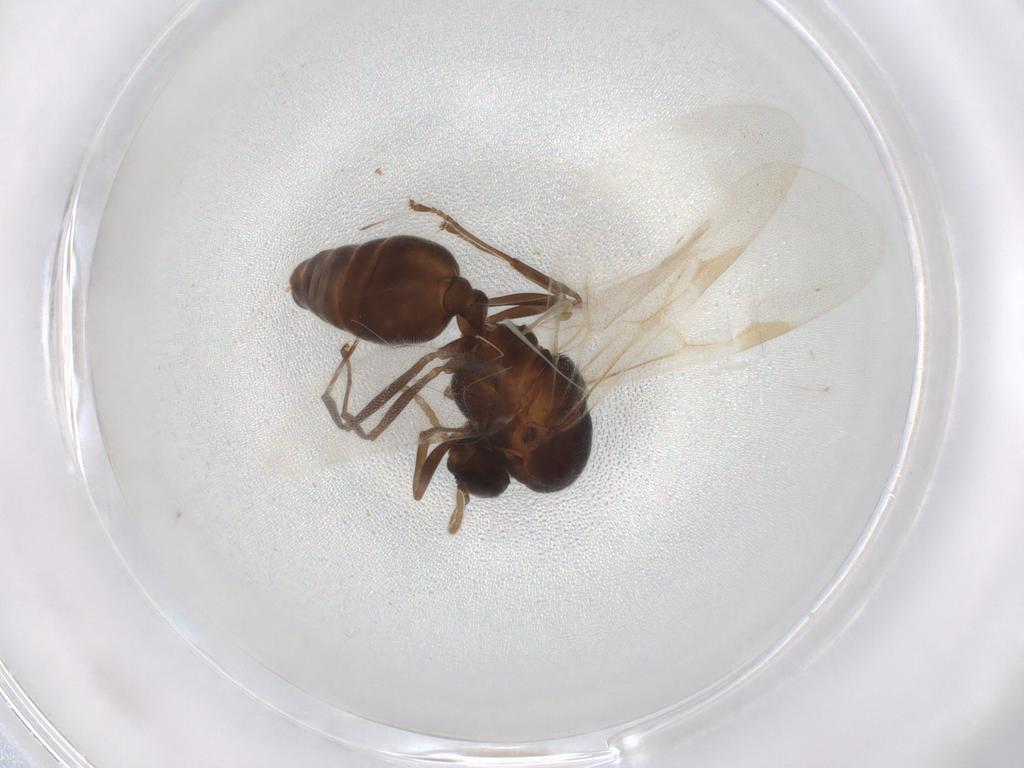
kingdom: Animalia
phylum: Arthropoda
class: Insecta
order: Hymenoptera
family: Formicidae
